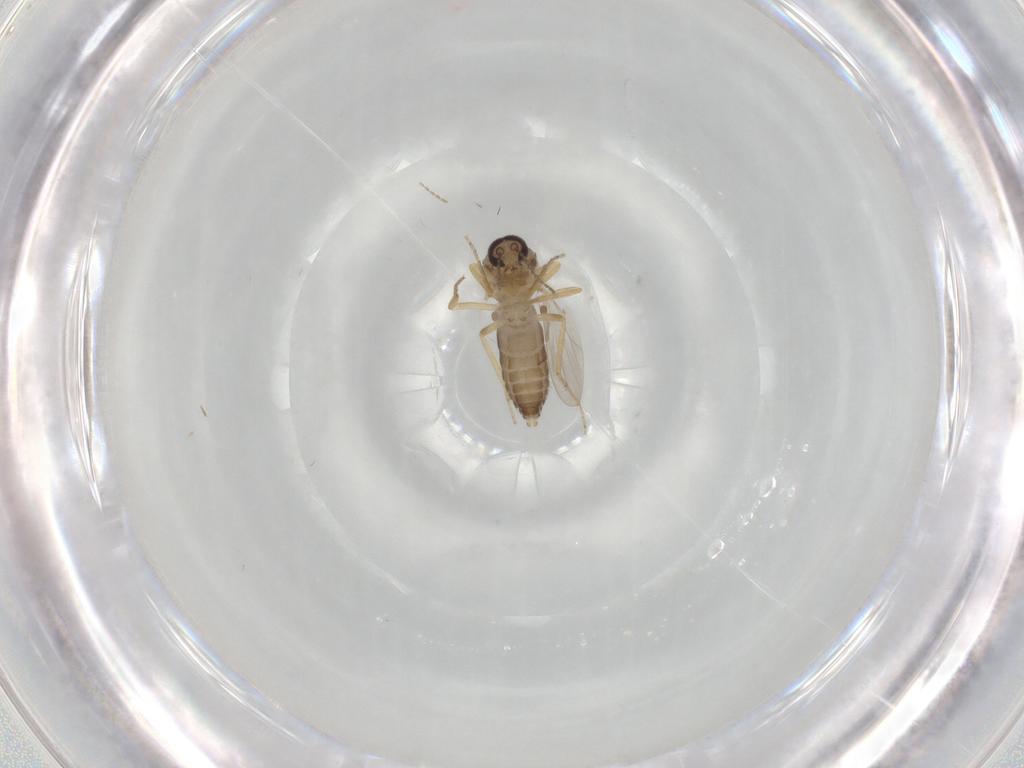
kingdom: Animalia
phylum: Arthropoda
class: Insecta
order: Diptera
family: Ceratopogonidae
